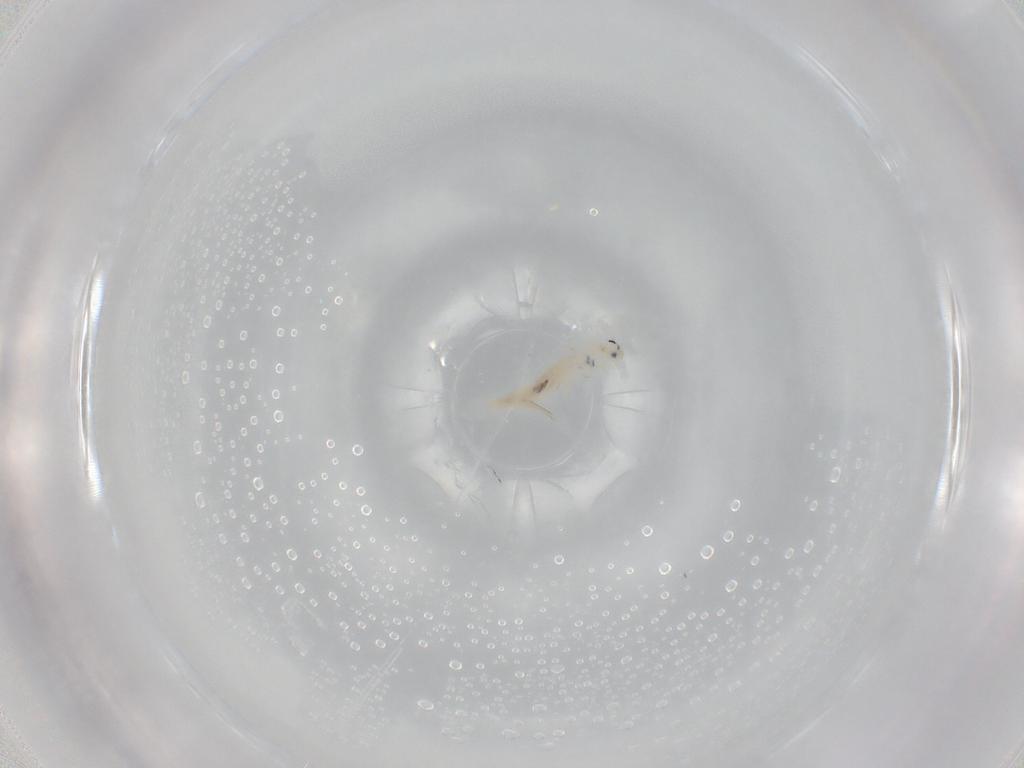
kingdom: Animalia
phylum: Arthropoda
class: Collembola
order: Entomobryomorpha
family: Entomobryidae
